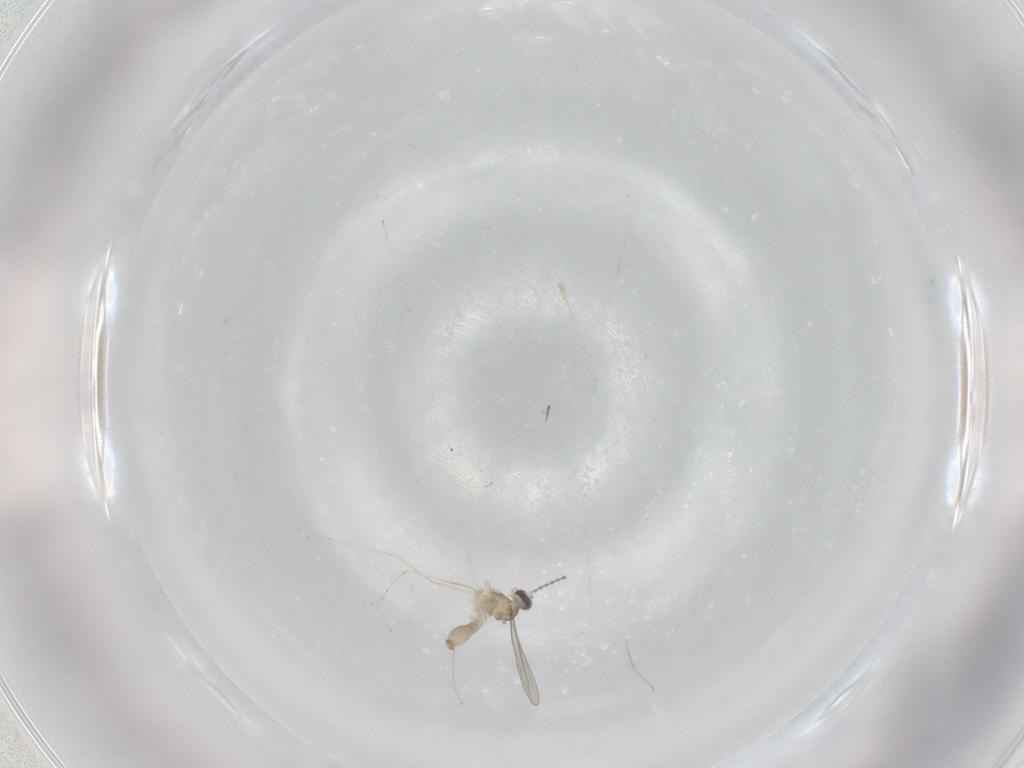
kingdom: Animalia
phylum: Arthropoda
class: Insecta
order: Diptera
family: Cecidomyiidae
